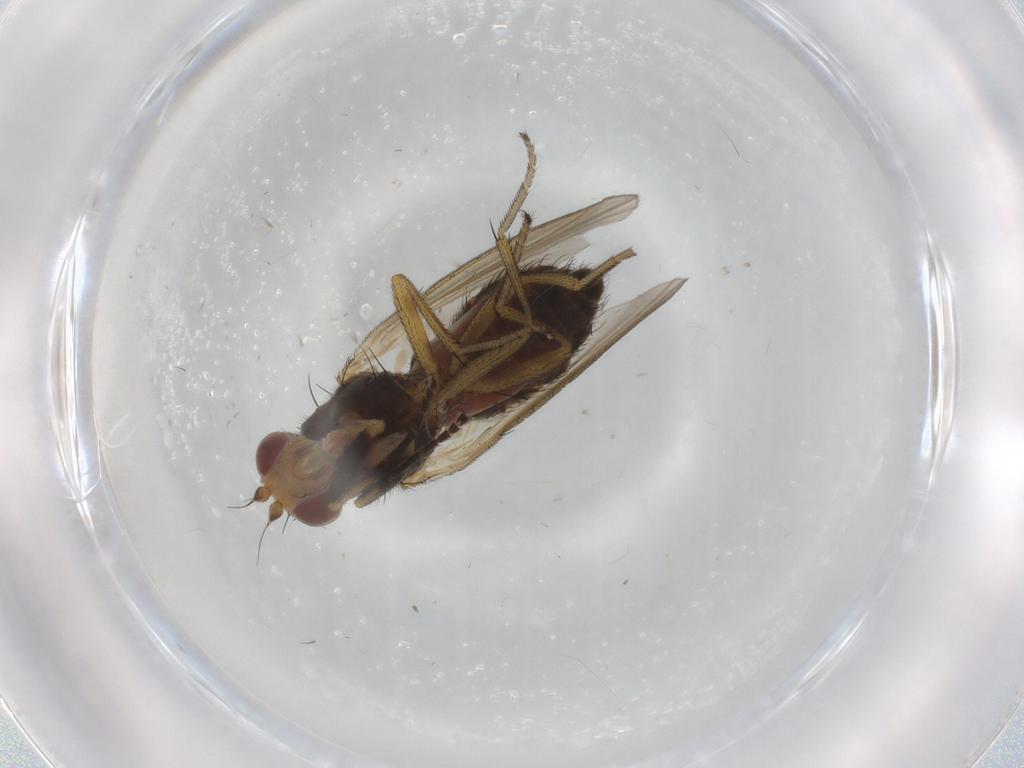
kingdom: Animalia
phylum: Arthropoda
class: Insecta
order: Diptera
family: Ulidiidae
